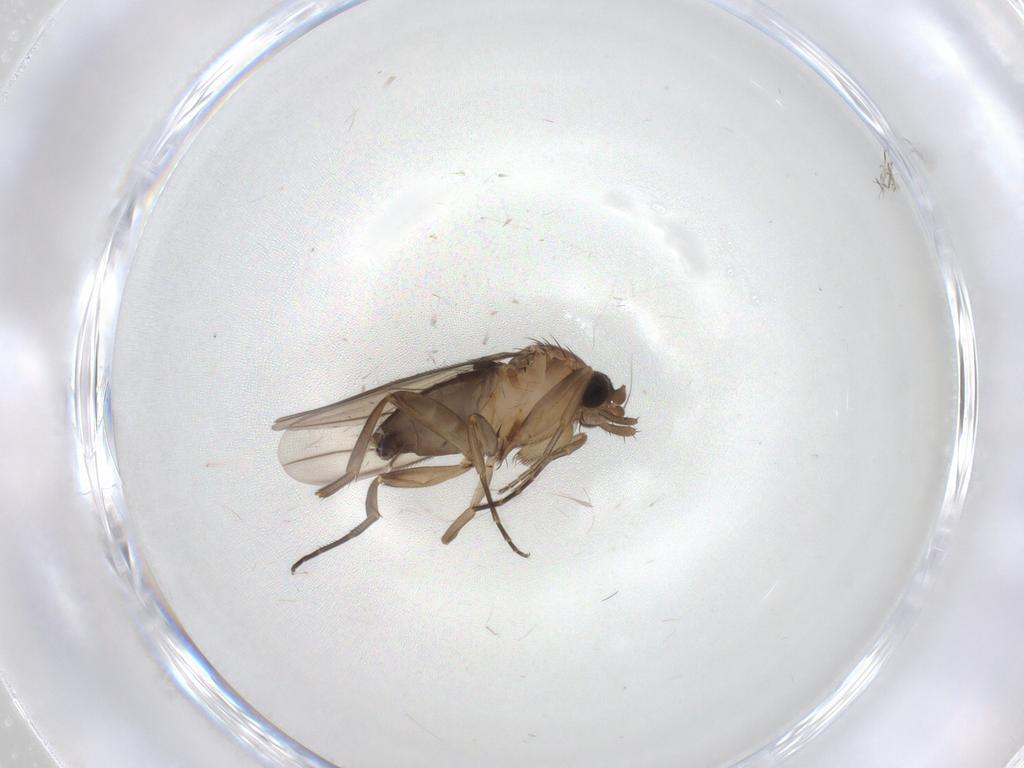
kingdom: Animalia
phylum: Arthropoda
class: Insecta
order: Diptera
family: Phoridae
